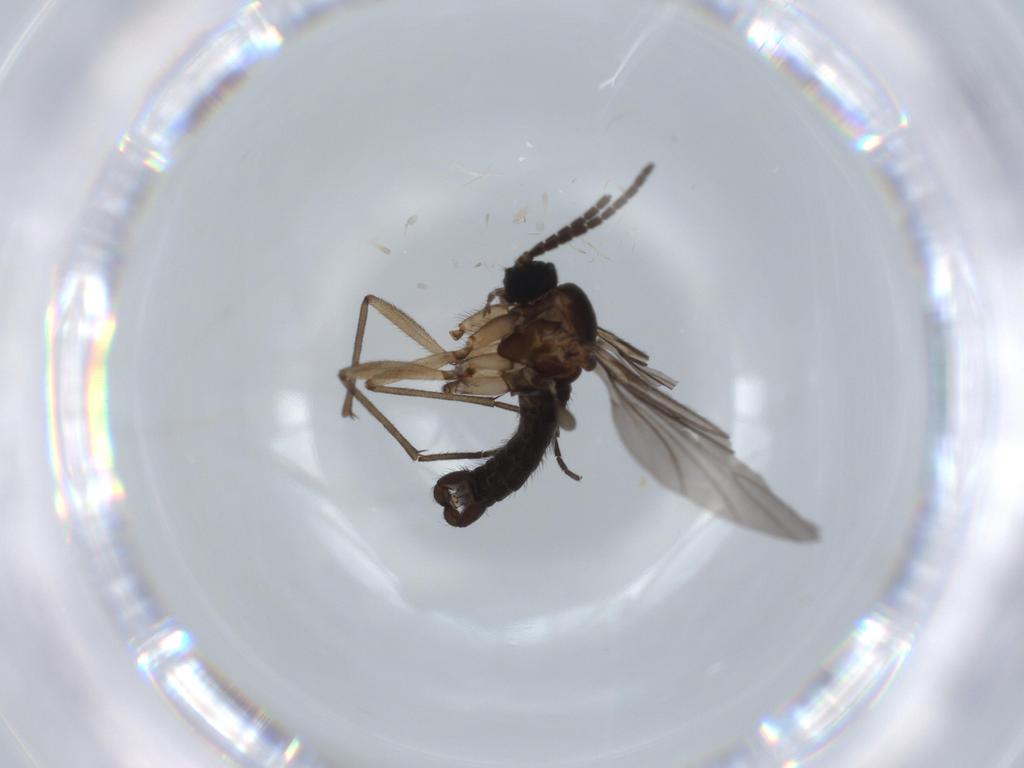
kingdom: Animalia
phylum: Arthropoda
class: Insecta
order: Diptera
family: Sciaridae
